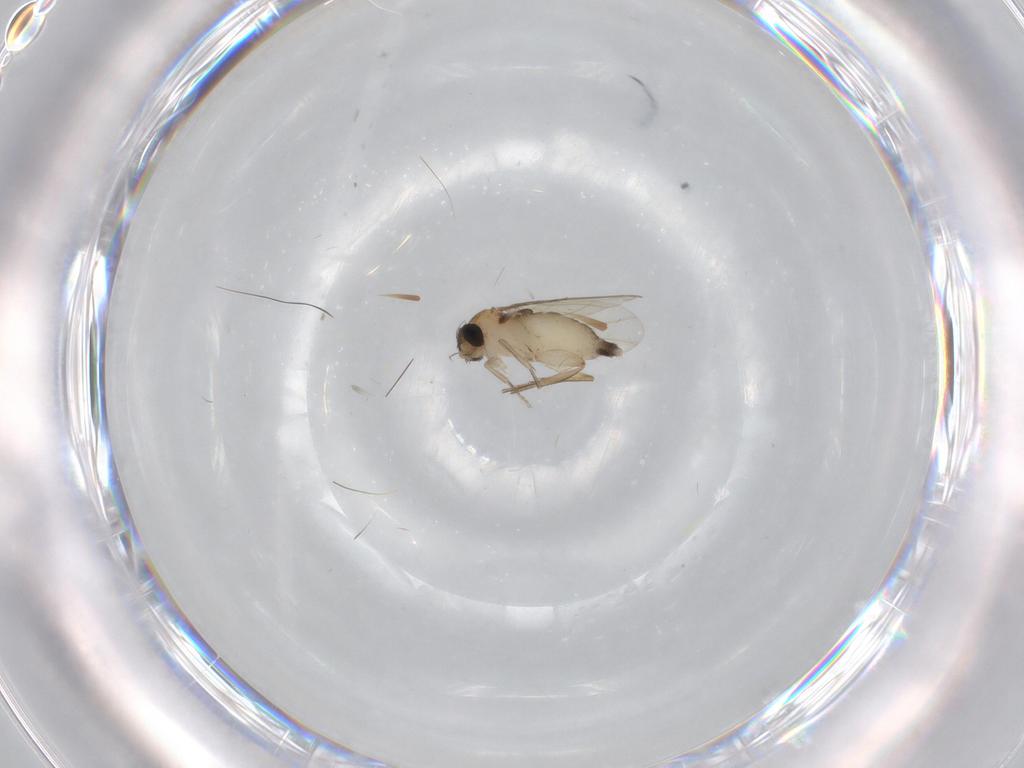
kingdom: Animalia
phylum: Arthropoda
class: Insecta
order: Diptera
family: Phoridae
